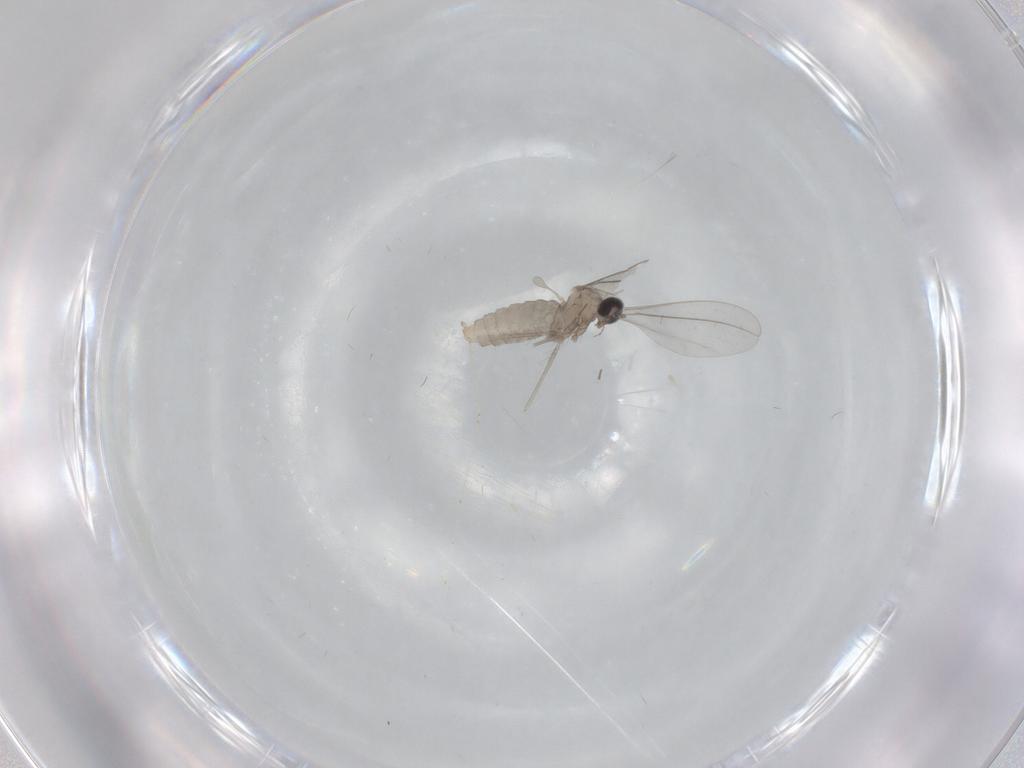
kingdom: Animalia
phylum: Arthropoda
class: Insecta
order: Diptera
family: Cecidomyiidae
